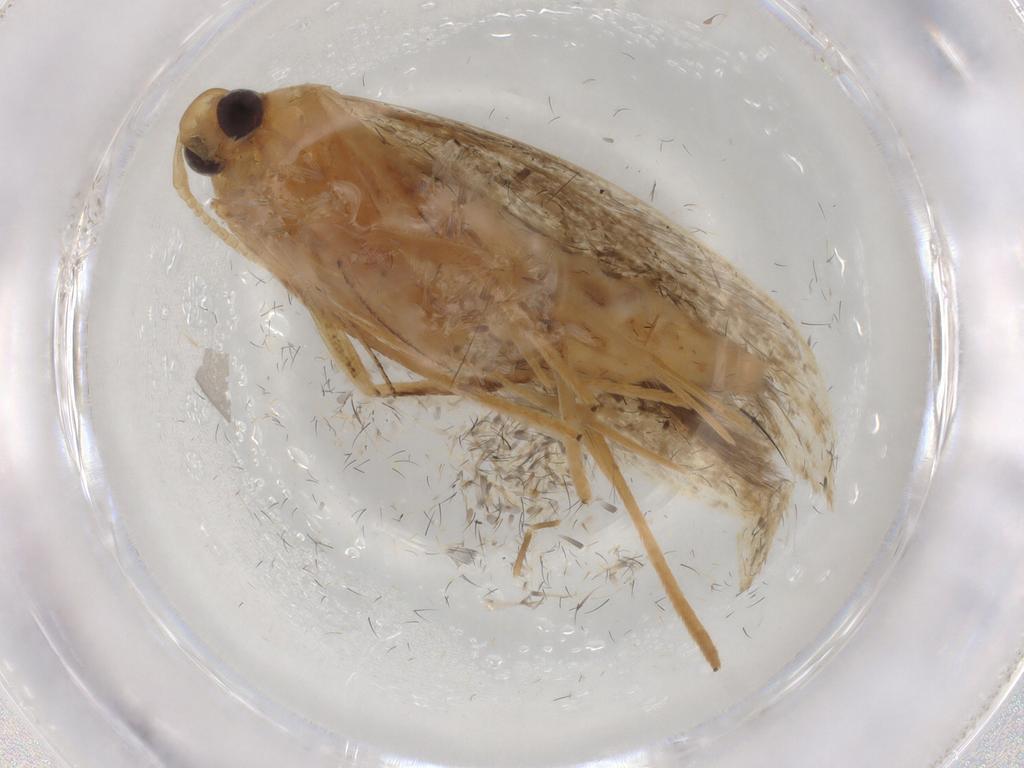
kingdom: Animalia
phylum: Arthropoda
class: Insecta
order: Lepidoptera
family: Coleophoridae
